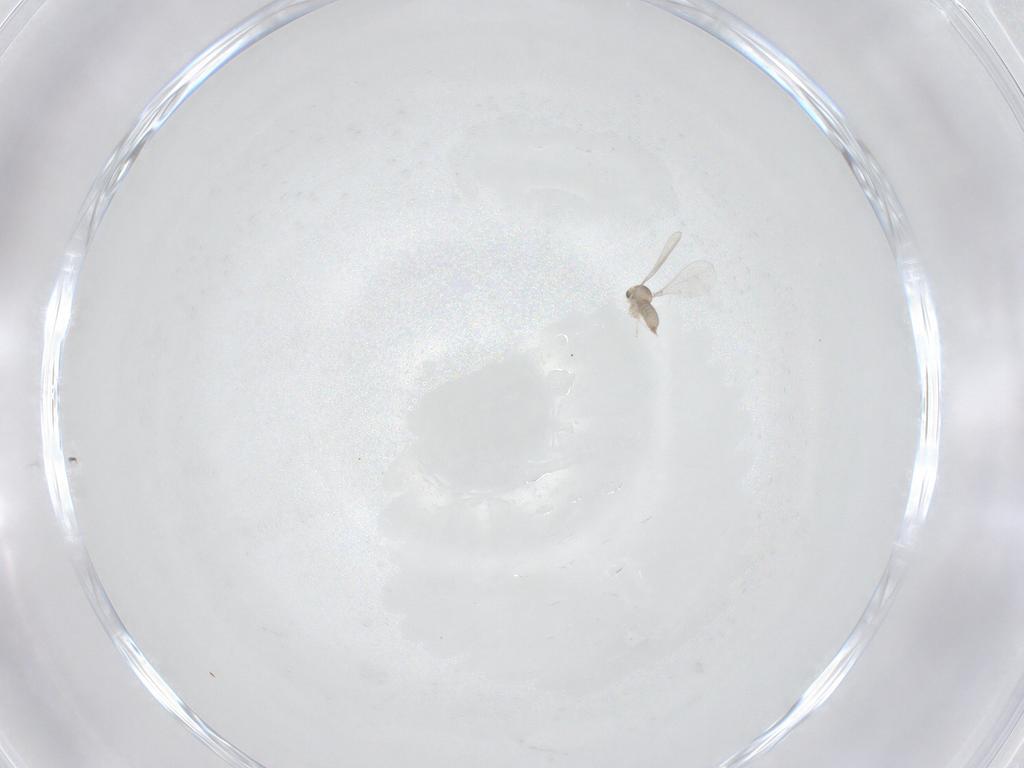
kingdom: Animalia
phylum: Arthropoda
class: Insecta
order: Diptera
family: Cecidomyiidae
